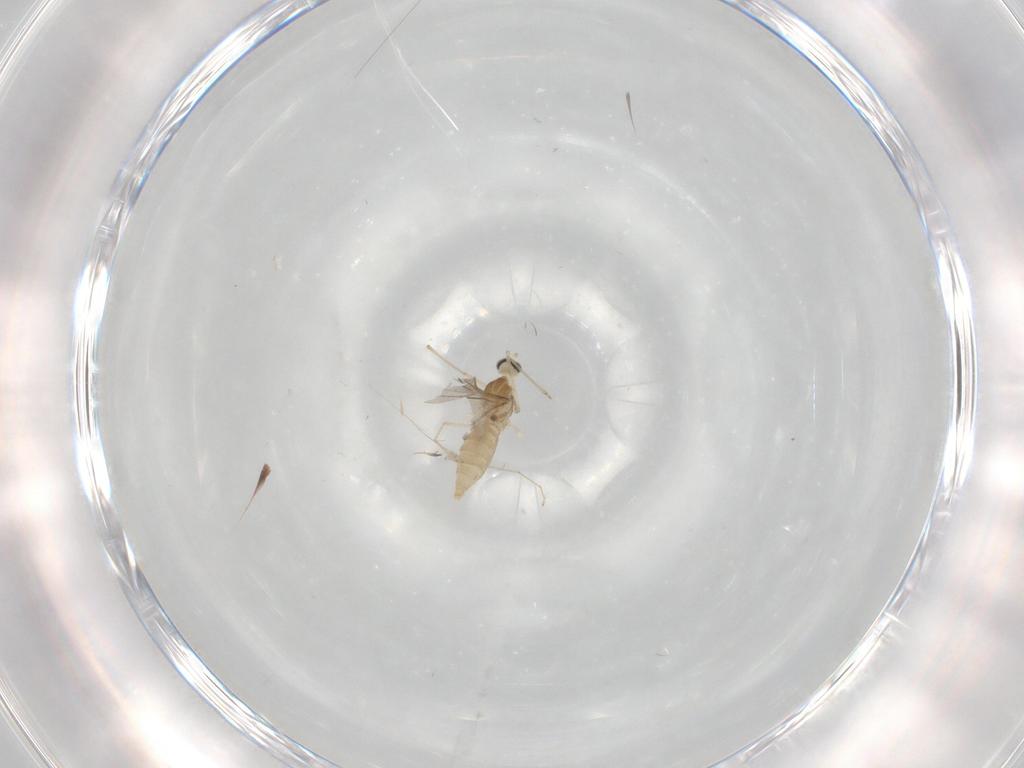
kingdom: Animalia
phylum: Arthropoda
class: Insecta
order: Diptera
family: Cecidomyiidae
